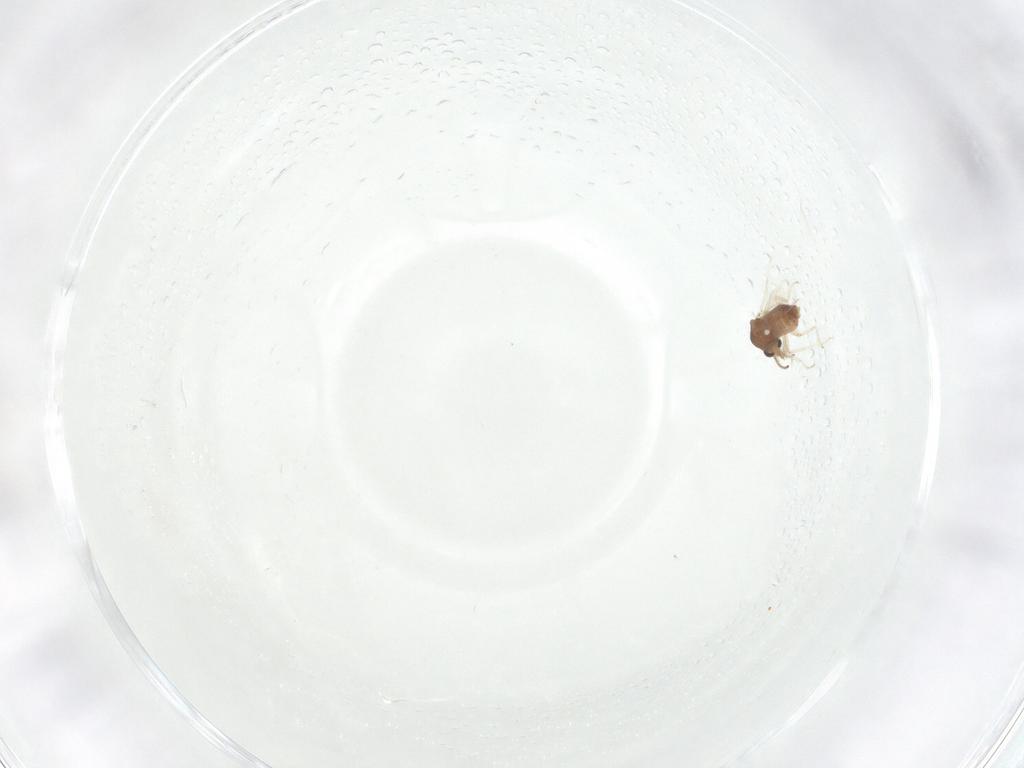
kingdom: Animalia
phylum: Arthropoda
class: Insecta
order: Diptera
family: Ceratopogonidae
